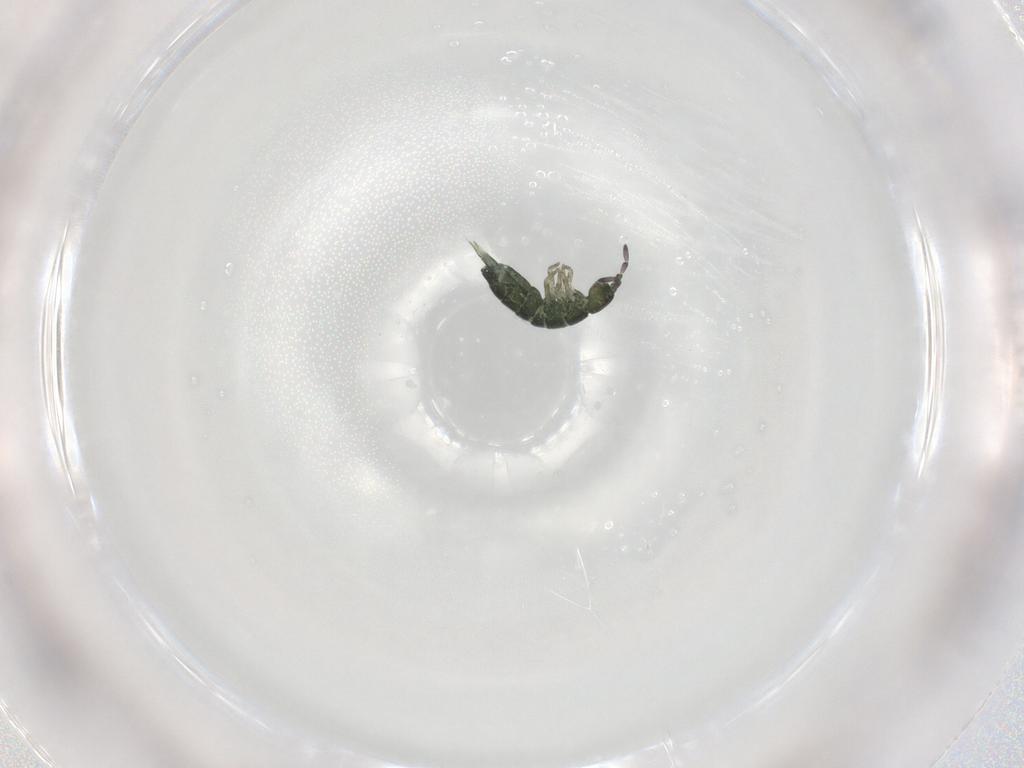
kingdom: Animalia
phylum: Arthropoda
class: Collembola
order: Entomobryomorpha
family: Isotomidae
